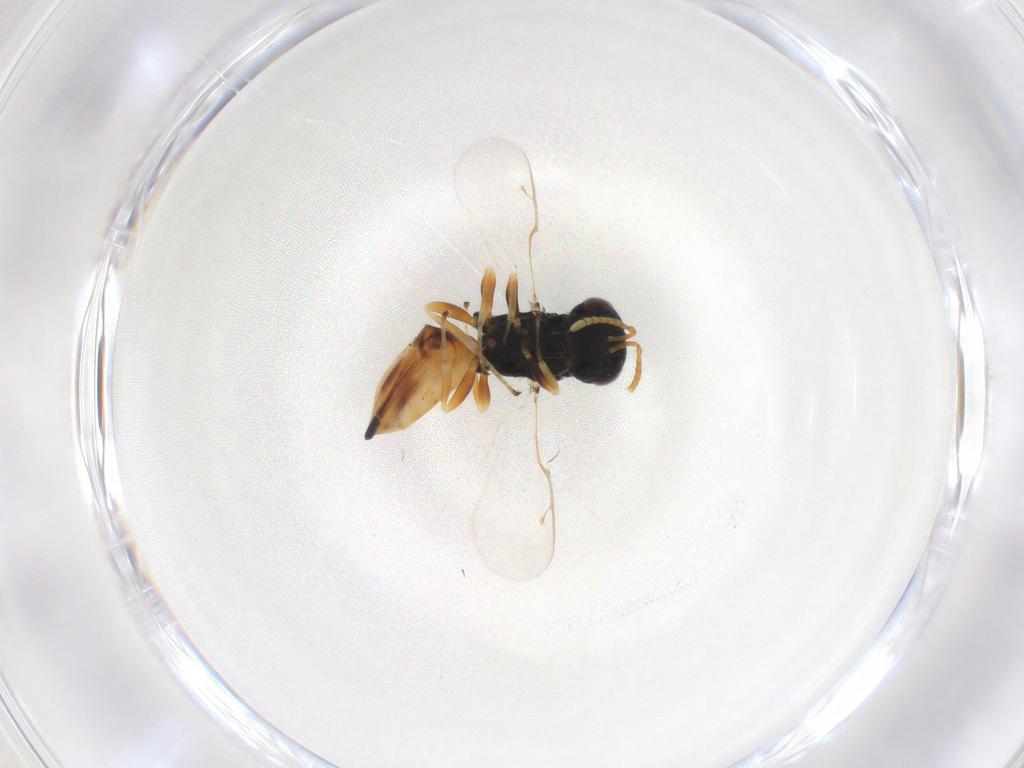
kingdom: Animalia
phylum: Arthropoda
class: Insecta
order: Hymenoptera
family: Pteromalidae
